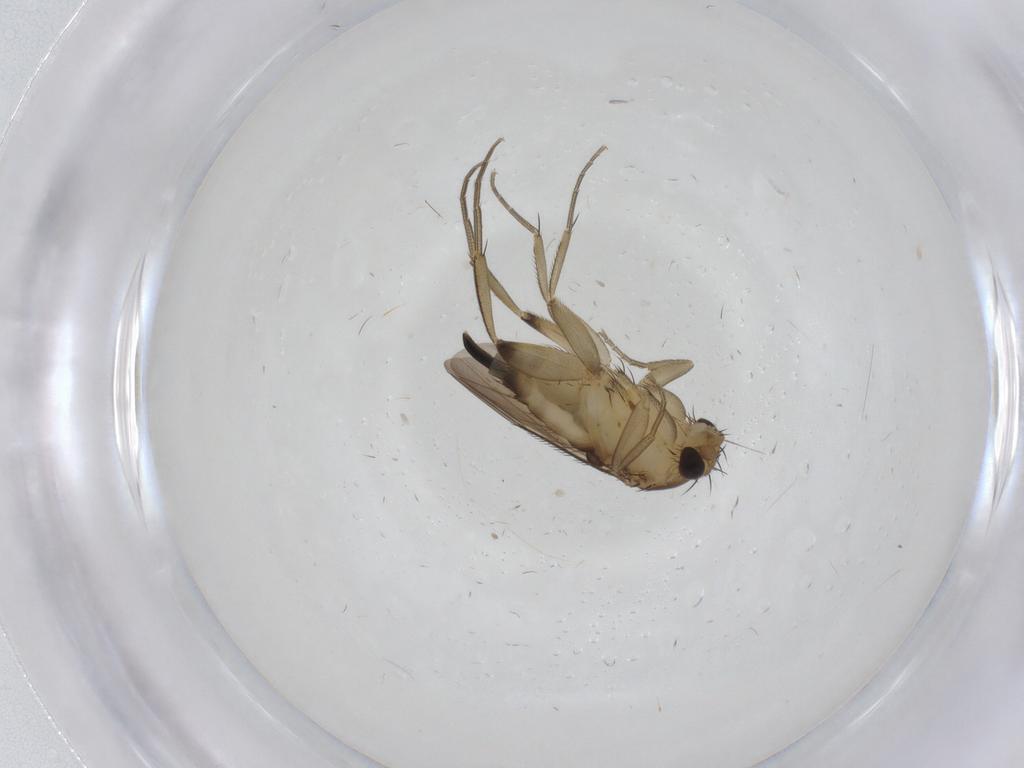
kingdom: Animalia
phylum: Arthropoda
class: Insecta
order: Diptera
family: Phoridae
